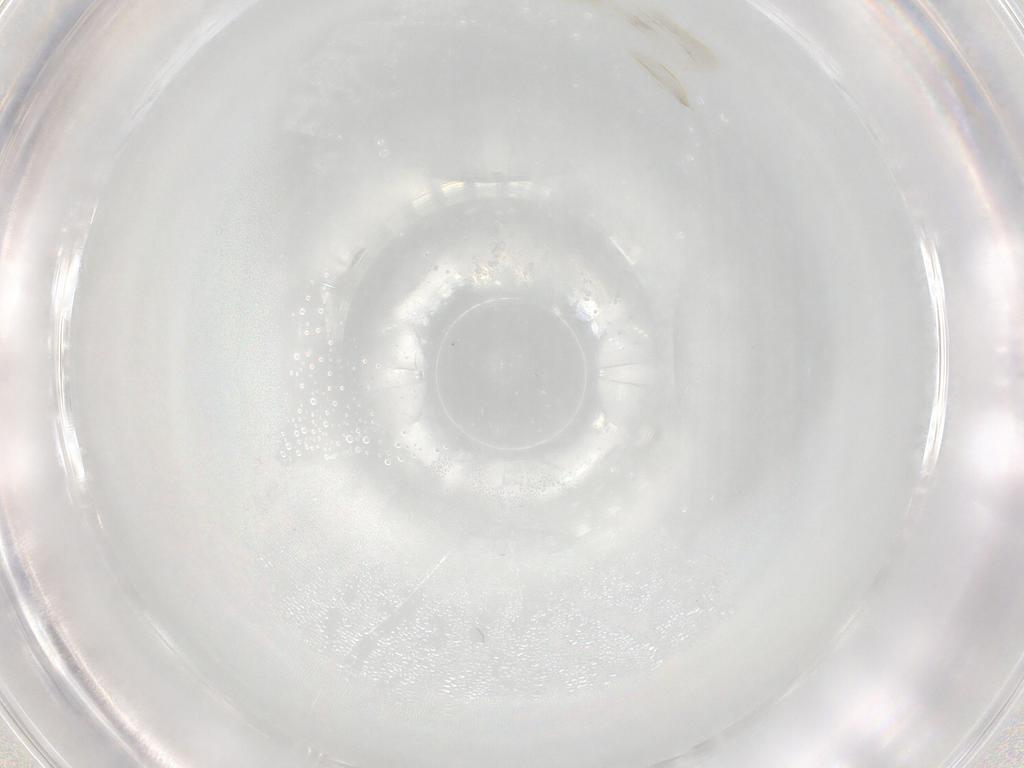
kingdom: Animalia
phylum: Arthropoda
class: Insecta
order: Hemiptera
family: Aleyrodidae
